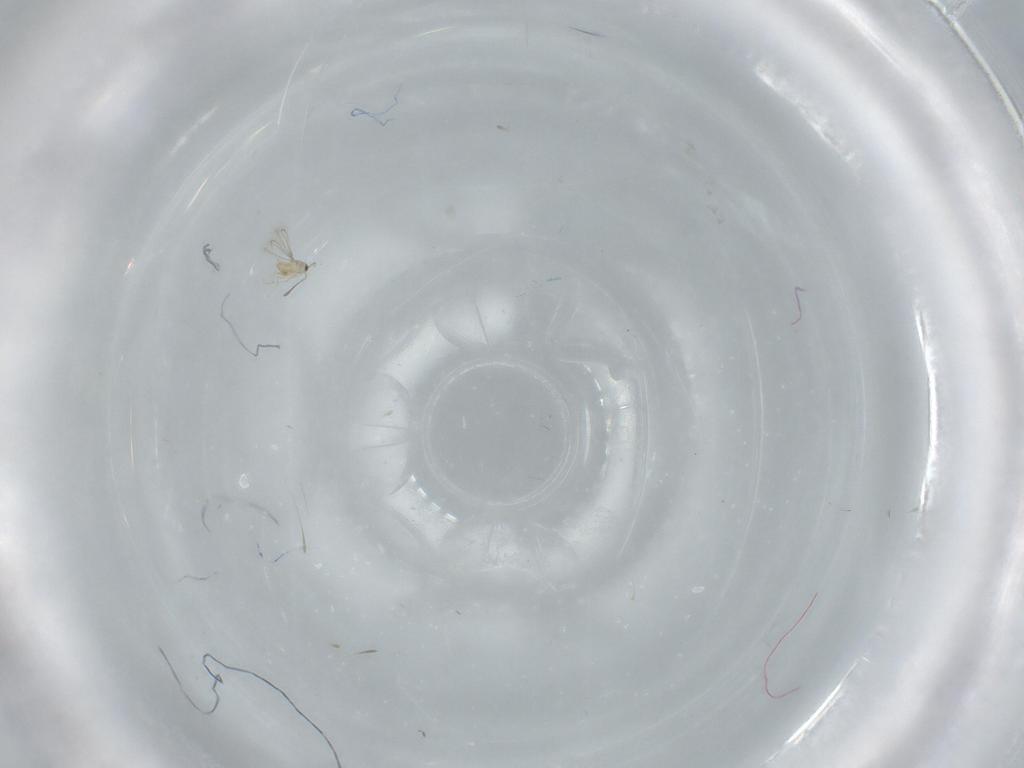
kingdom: Animalia
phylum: Arthropoda
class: Insecta
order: Hymenoptera
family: Mymaridae
